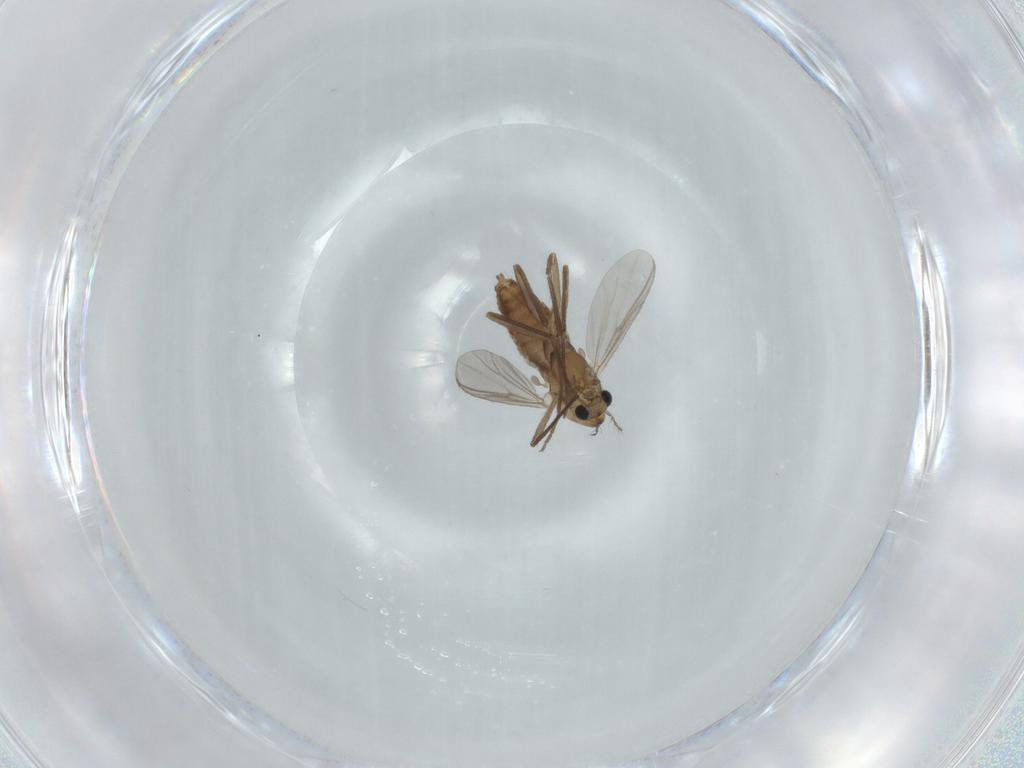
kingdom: Animalia
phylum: Arthropoda
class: Insecta
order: Diptera
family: Chironomidae
